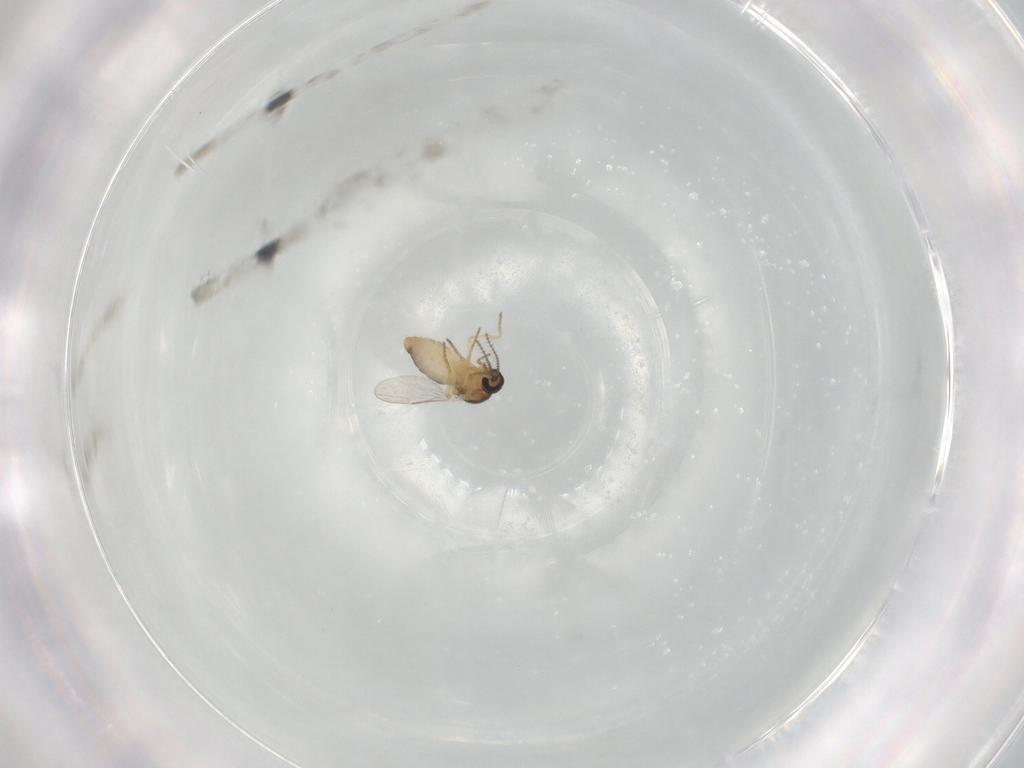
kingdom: Animalia
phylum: Arthropoda
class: Insecta
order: Diptera
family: Ceratopogonidae
